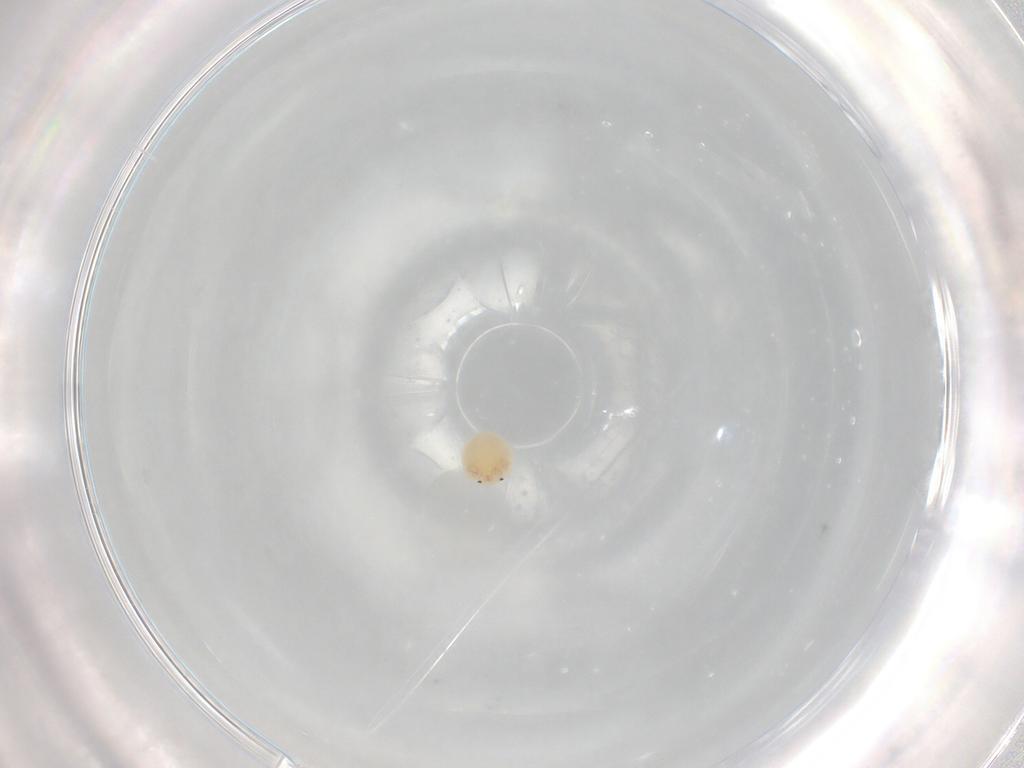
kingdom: Animalia
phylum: Arthropoda
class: Arachnida
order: Trombidiformes
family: Arrenuridae
